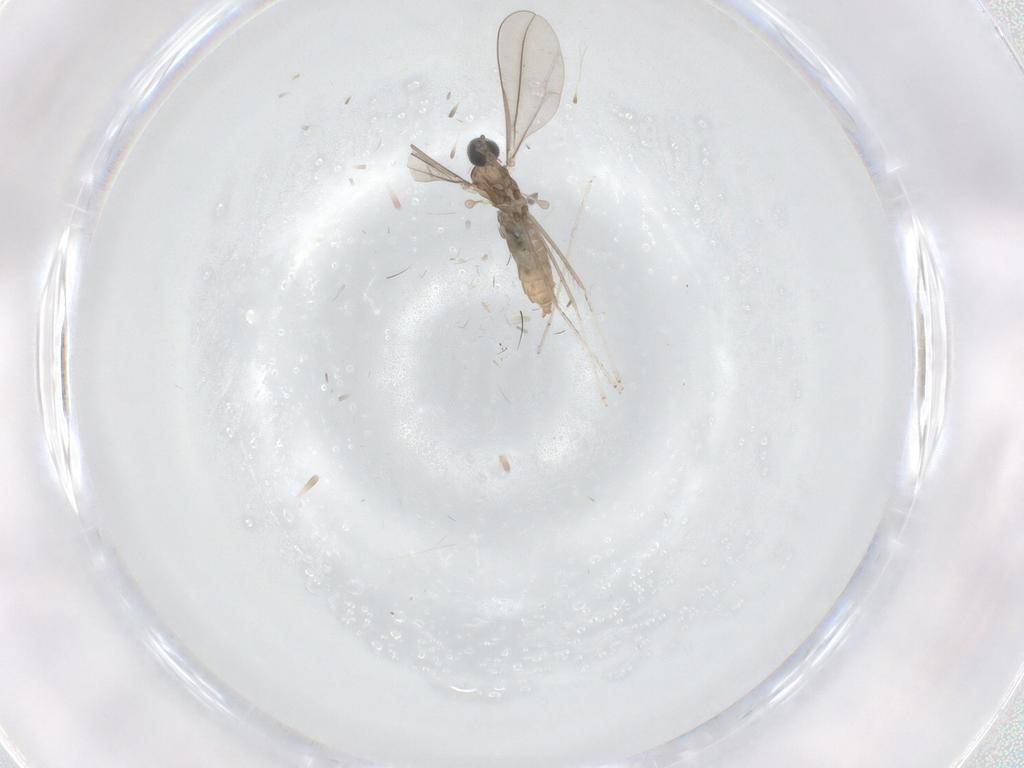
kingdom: Animalia
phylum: Arthropoda
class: Insecta
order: Diptera
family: Cecidomyiidae
